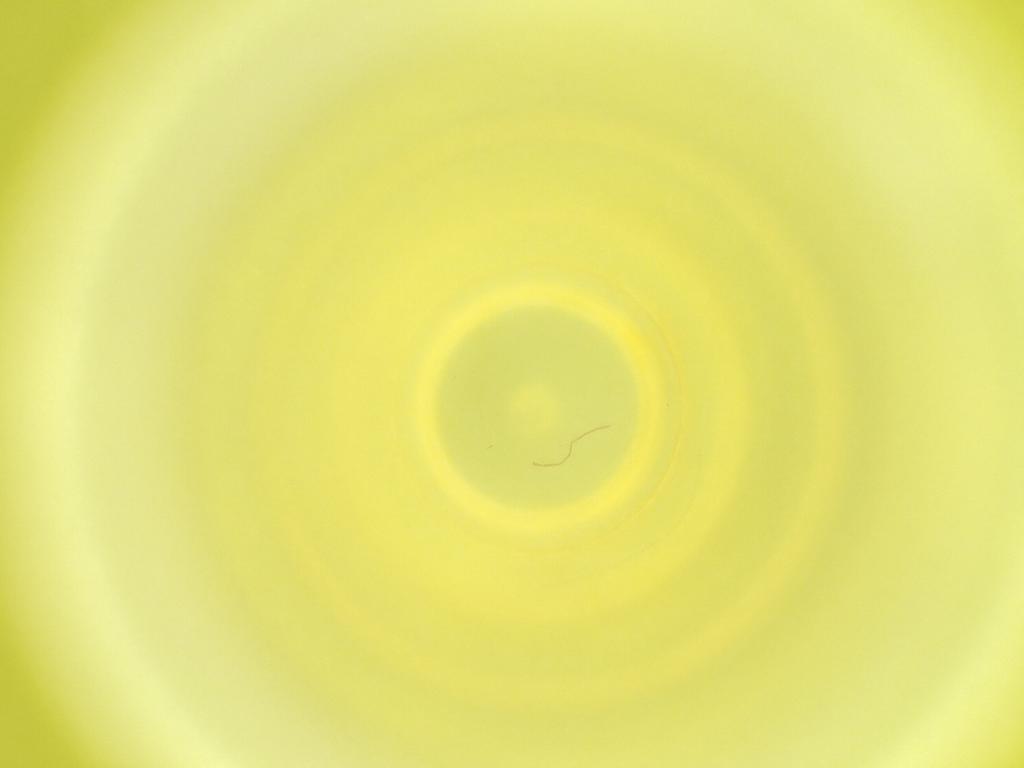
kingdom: Animalia
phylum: Arthropoda
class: Insecta
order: Diptera
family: Cecidomyiidae
